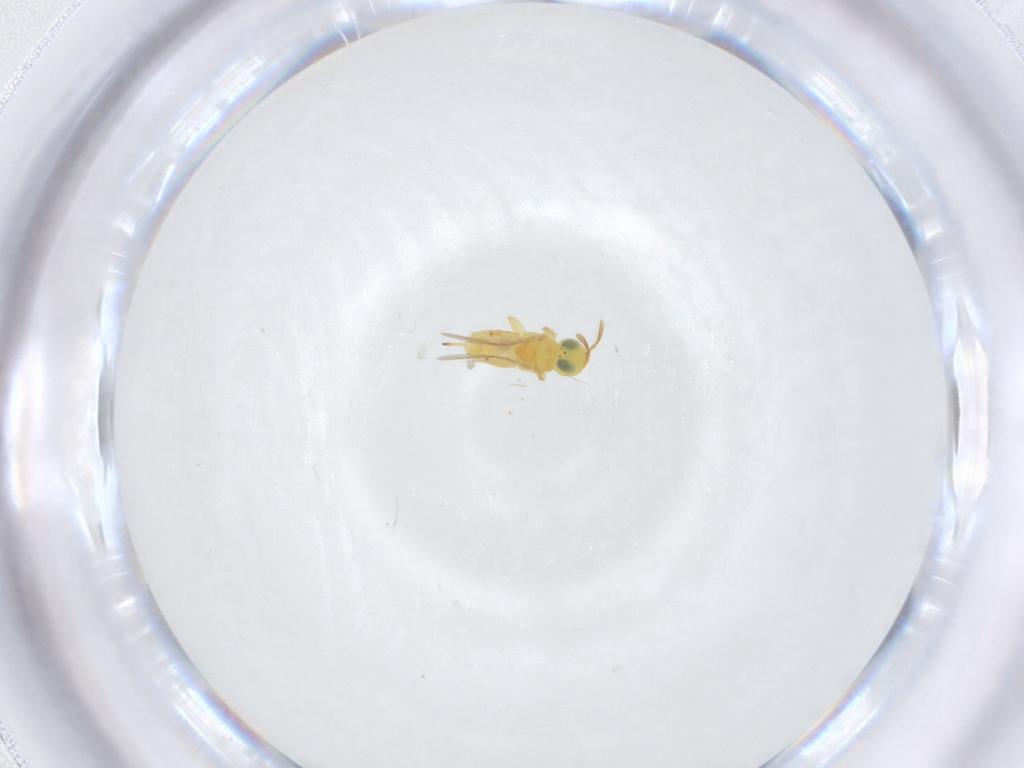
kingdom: Animalia
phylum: Arthropoda
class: Insecta
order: Hymenoptera
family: Encyrtidae
